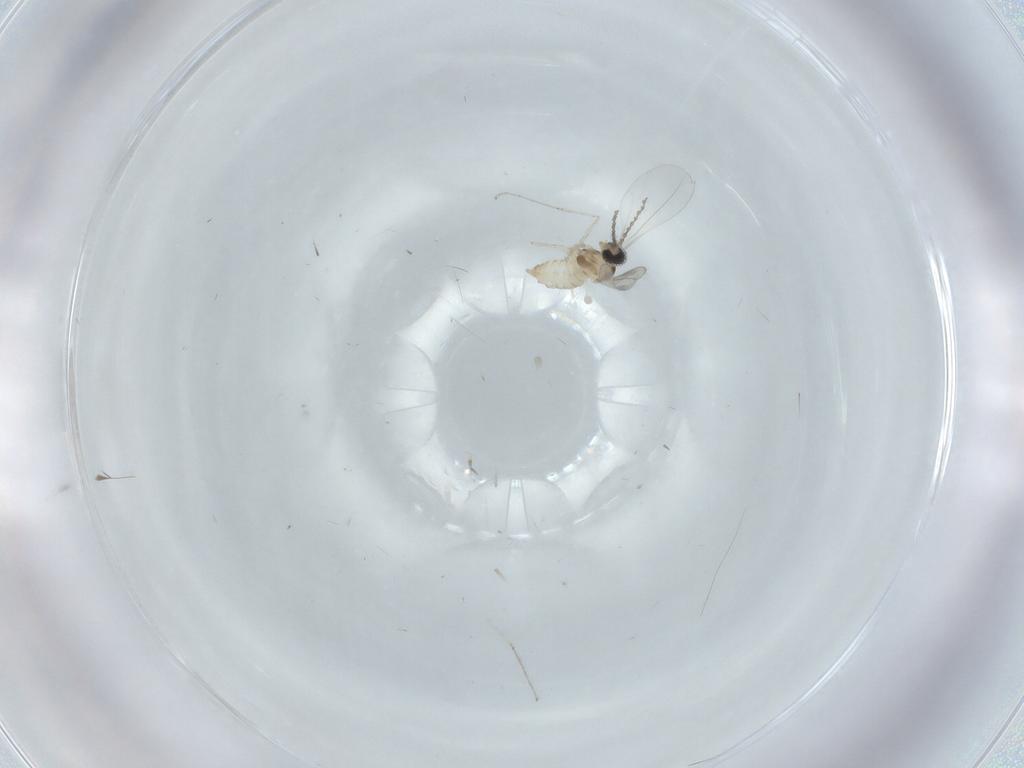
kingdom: Animalia
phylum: Arthropoda
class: Insecta
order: Diptera
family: Cecidomyiidae
